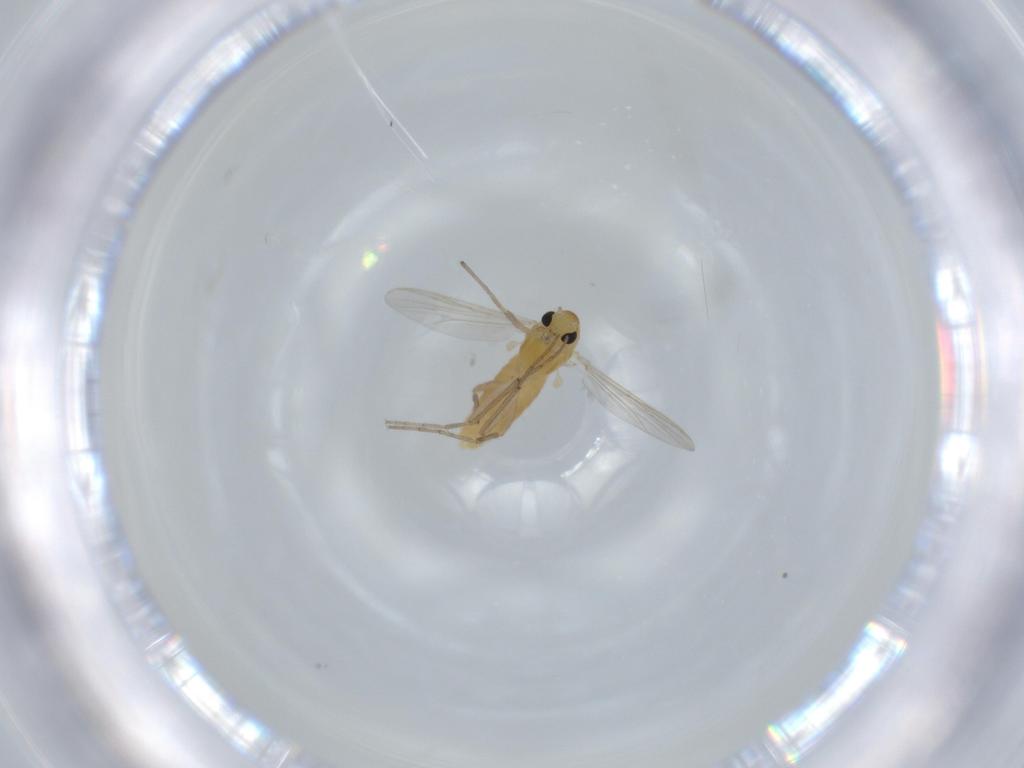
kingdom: Animalia
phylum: Arthropoda
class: Insecta
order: Diptera
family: Chironomidae
